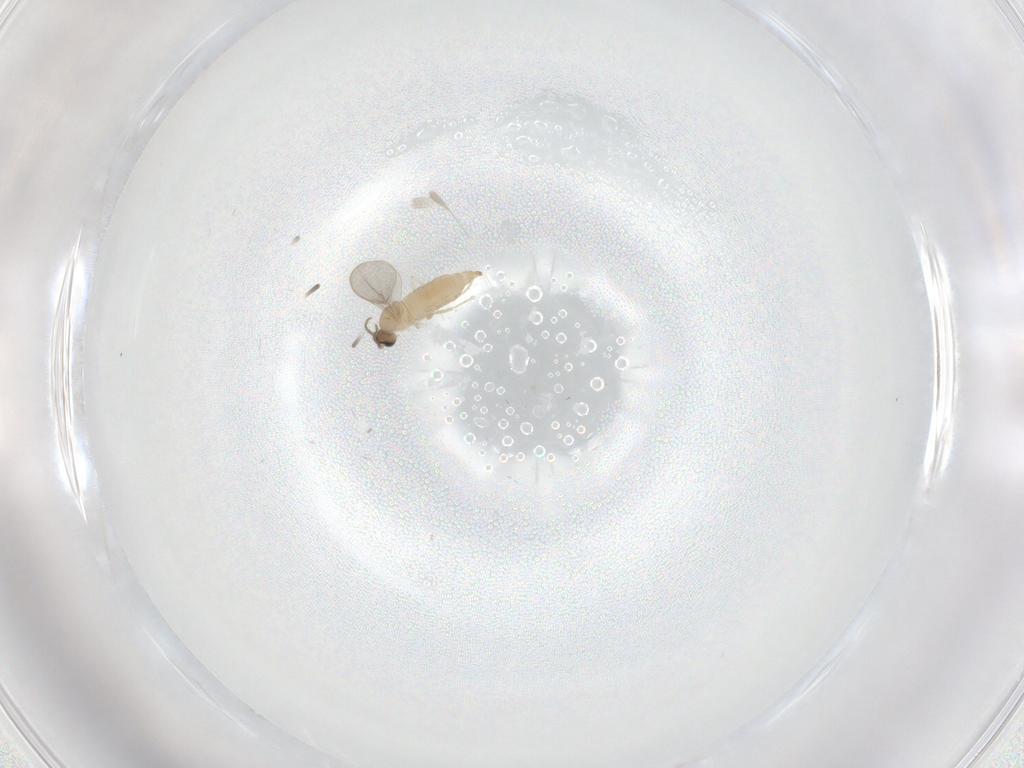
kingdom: Animalia
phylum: Arthropoda
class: Insecta
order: Diptera
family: Cecidomyiidae
